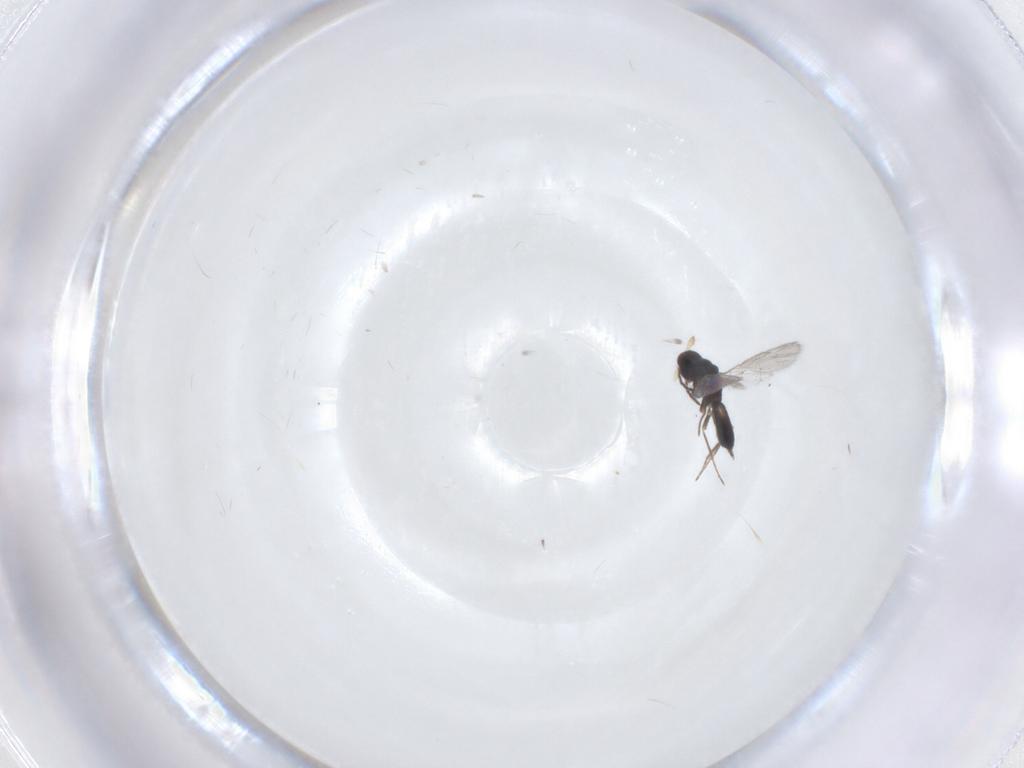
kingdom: Animalia
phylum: Arthropoda
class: Insecta
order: Hymenoptera
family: Eulophidae
